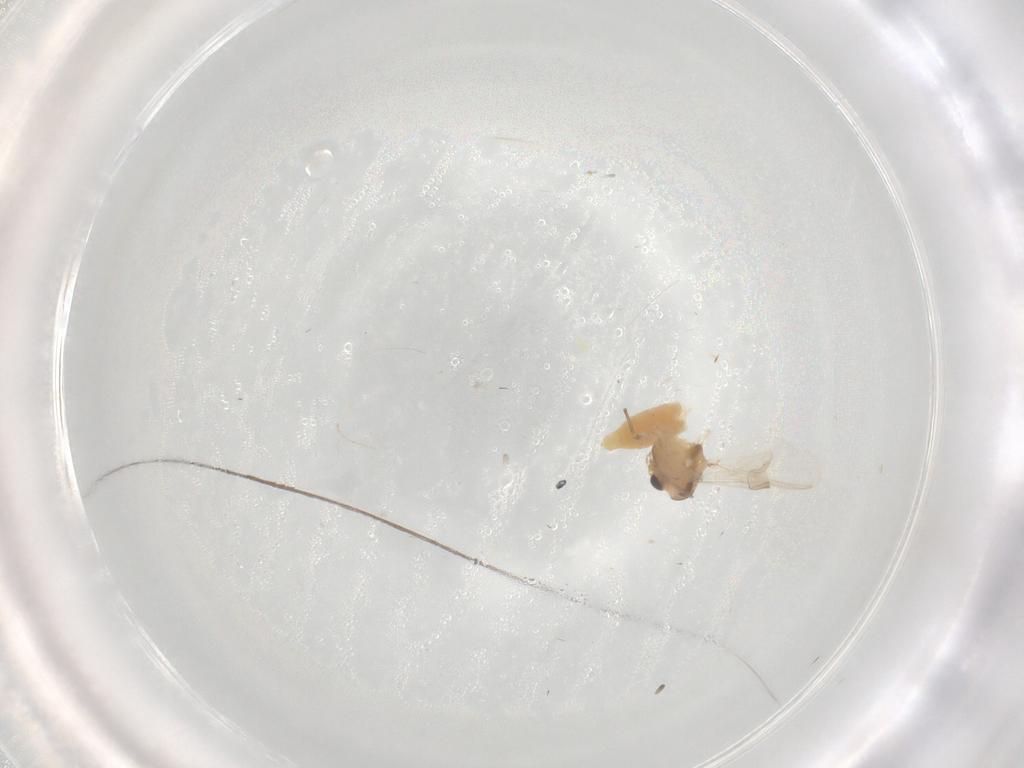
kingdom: Animalia
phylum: Arthropoda
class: Insecta
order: Diptera
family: Chironomidae
